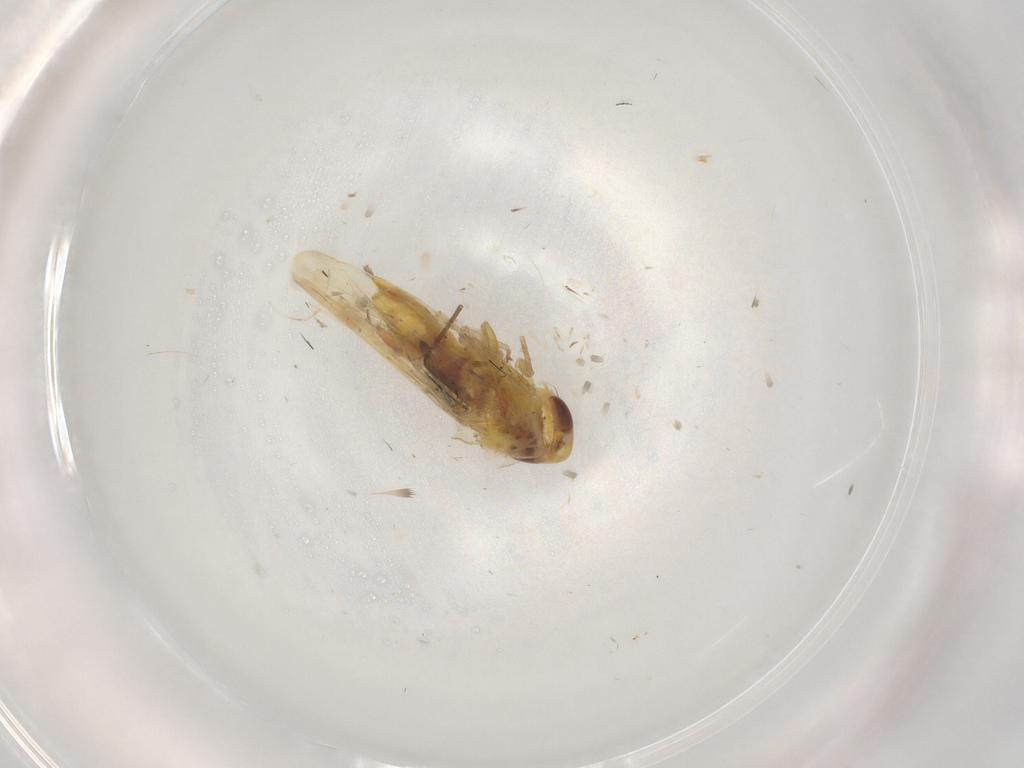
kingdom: Animalia
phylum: Arthropoda
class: Insecta
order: Hemiptera
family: Cicadellidae
